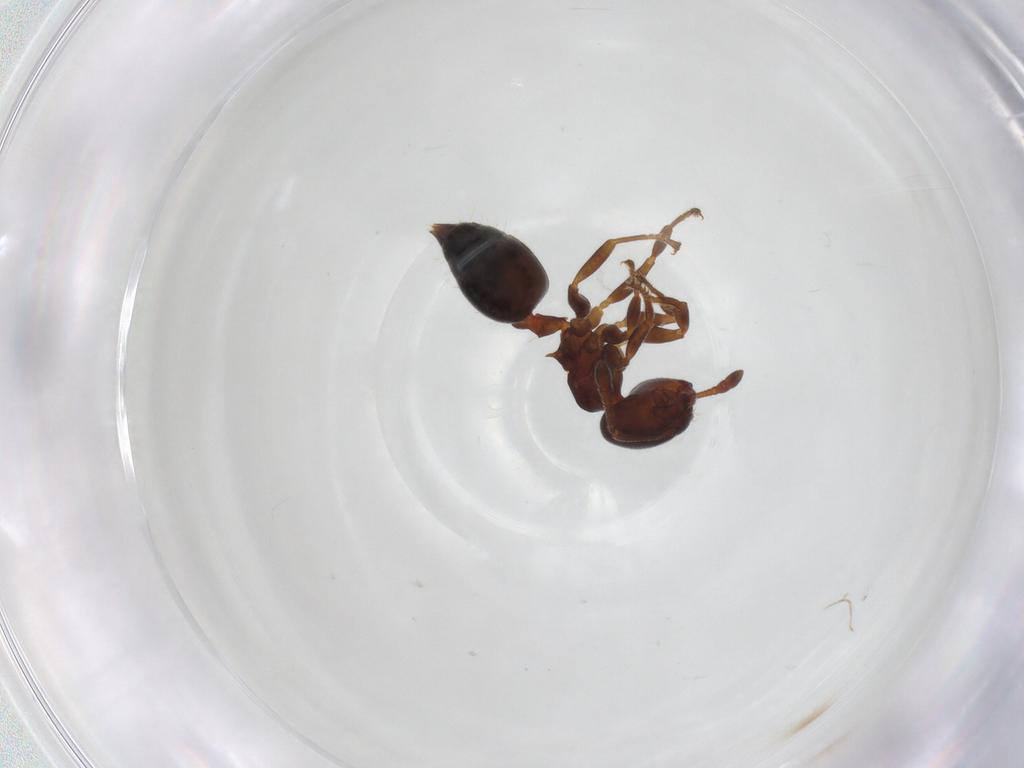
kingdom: Animalia
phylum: Arthropoda
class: Insecta
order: Hymenoptera
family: Formicidae
